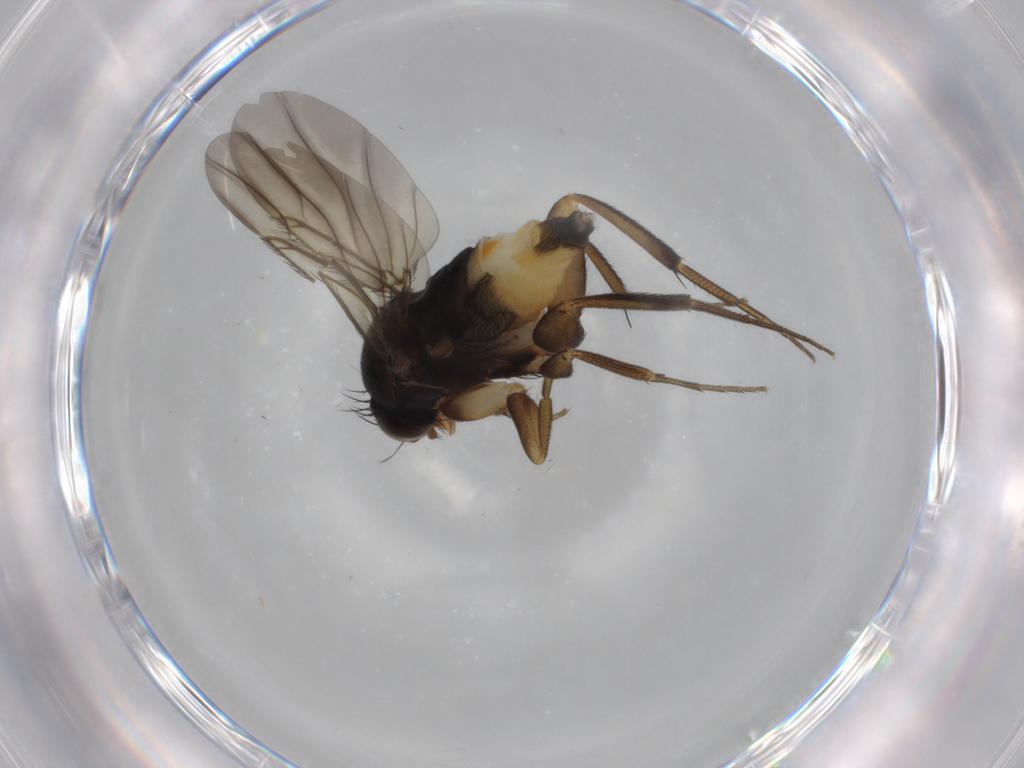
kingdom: Animalia
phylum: Arthropoda
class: Insecta
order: Diptera
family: Phoridae
